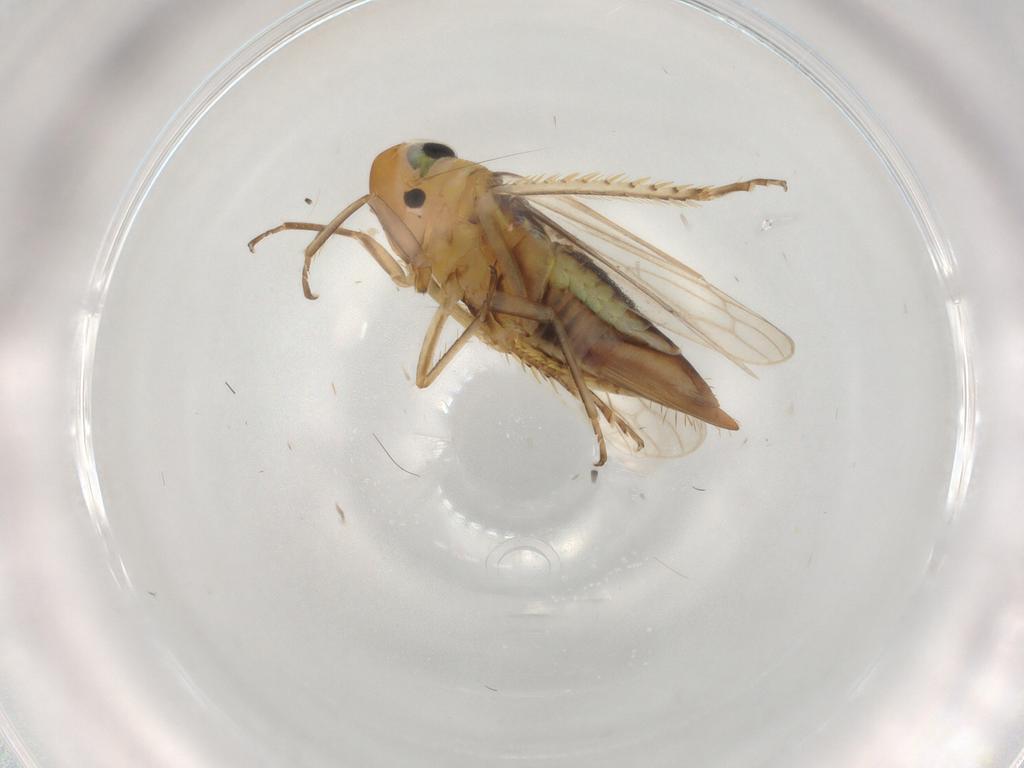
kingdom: Animalia
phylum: Arthropoda
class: Insecta
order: Hemiptera
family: Cicadellidae
